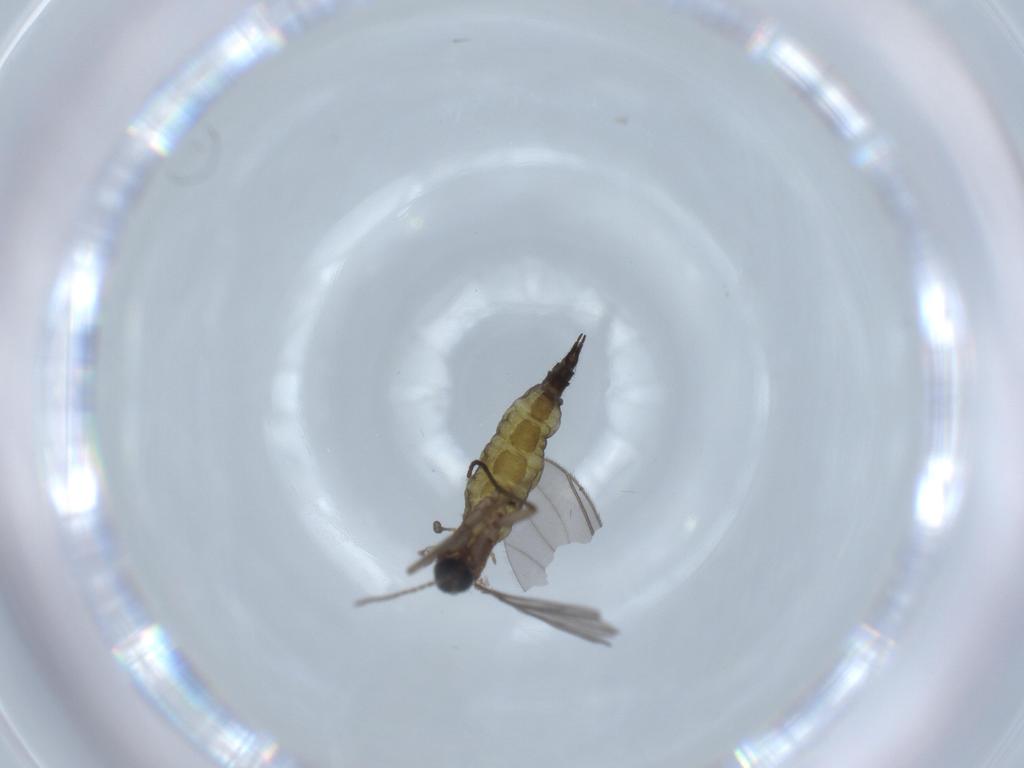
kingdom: Animalia
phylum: Arthropoda
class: Insecta
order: Diptera
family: Sciaridae
